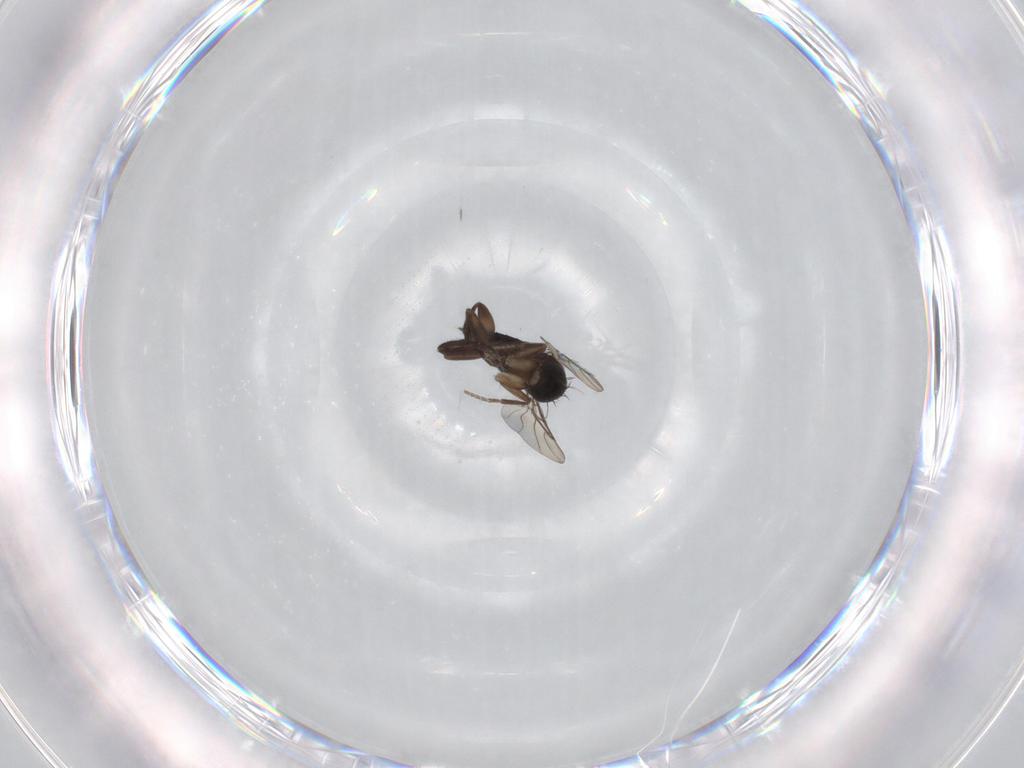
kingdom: Animalia
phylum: Arthropoda
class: Insecta
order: Diptera
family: Phoridae
